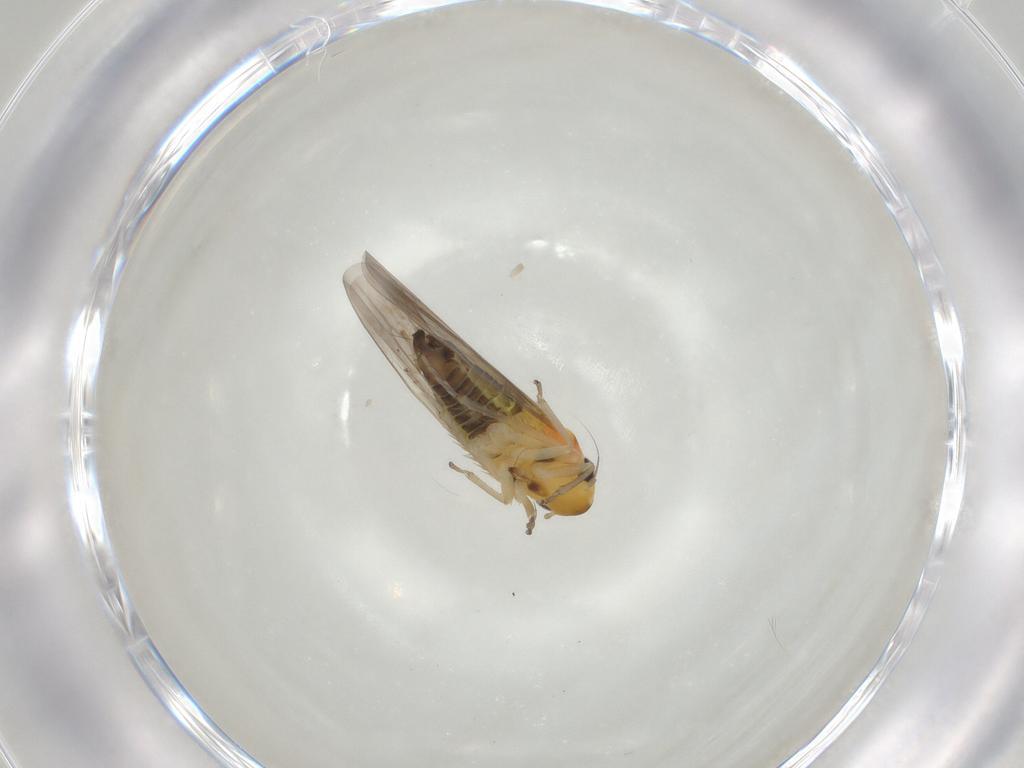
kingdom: Animalia
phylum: Arthropoda
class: Insecta
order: Hemiptera
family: Cicadellidae
